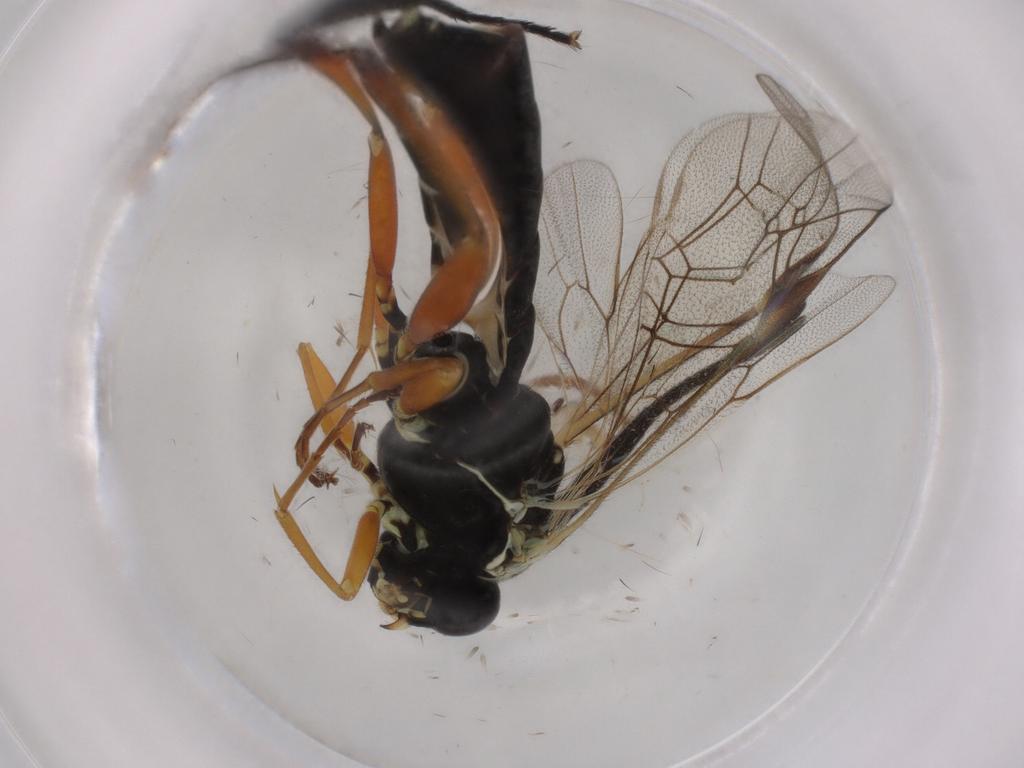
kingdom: Animalia
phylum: Arthropoda
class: Insecta
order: Hymenoptera
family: Ichneumonidae
